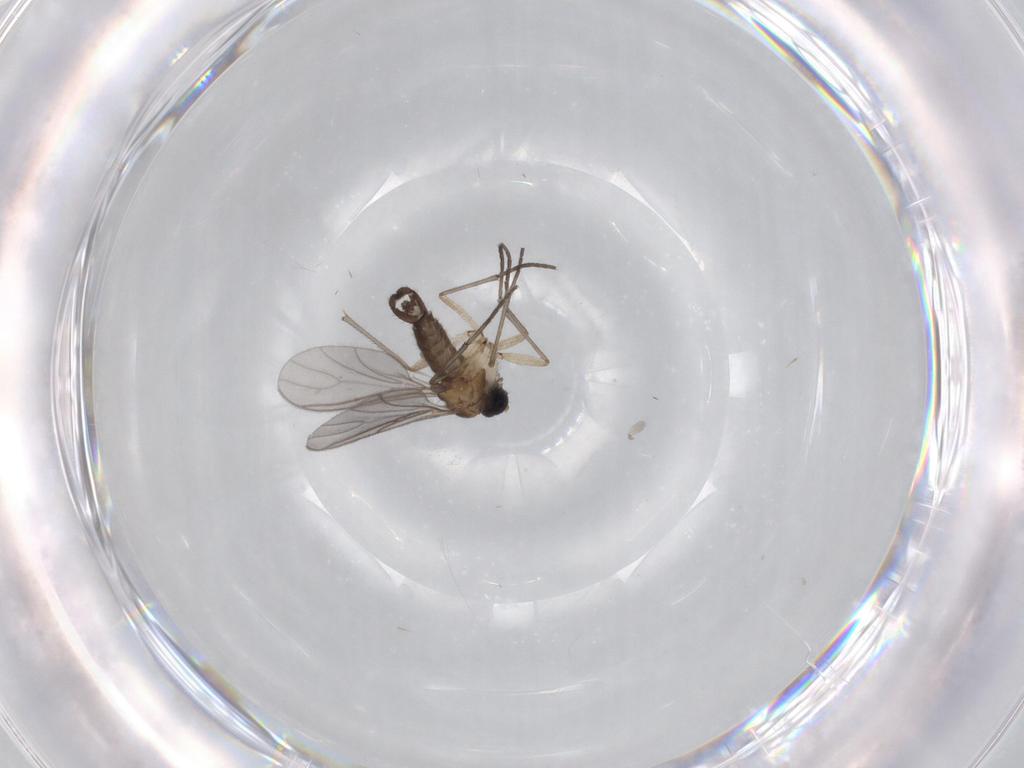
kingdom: Animalia
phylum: Arthropoda
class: Insecta
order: Diptera
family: Sciaridae
